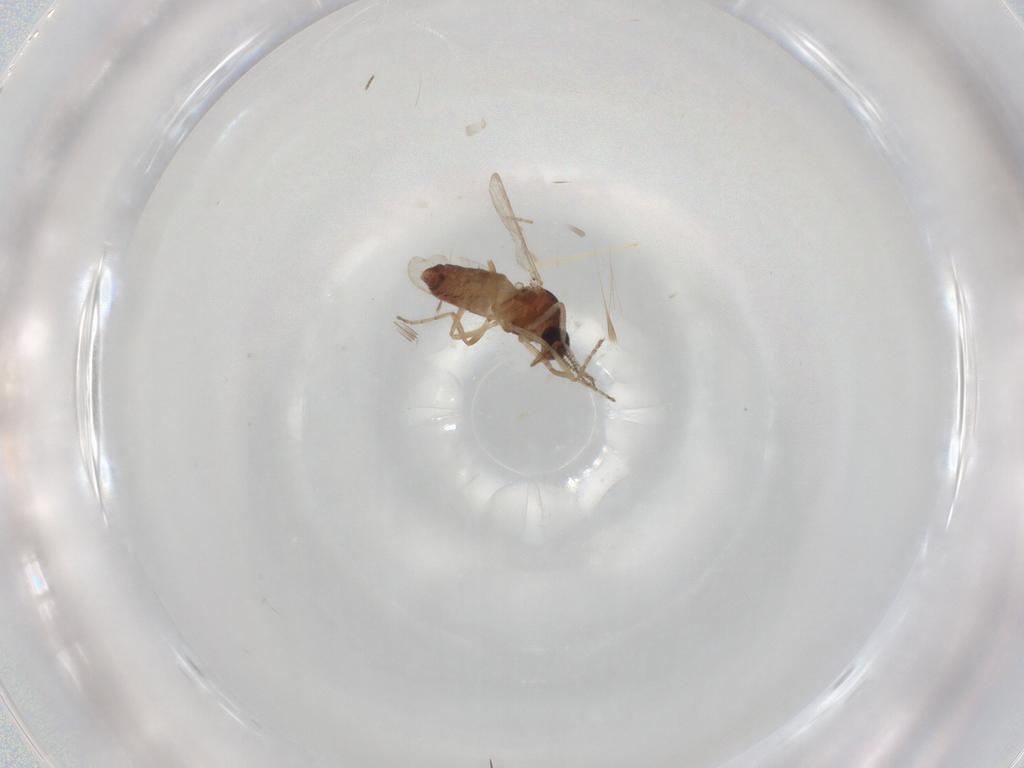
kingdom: Animalia
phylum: Arthropoda
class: Insecta
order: Diptera
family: Ceratopogonidae
